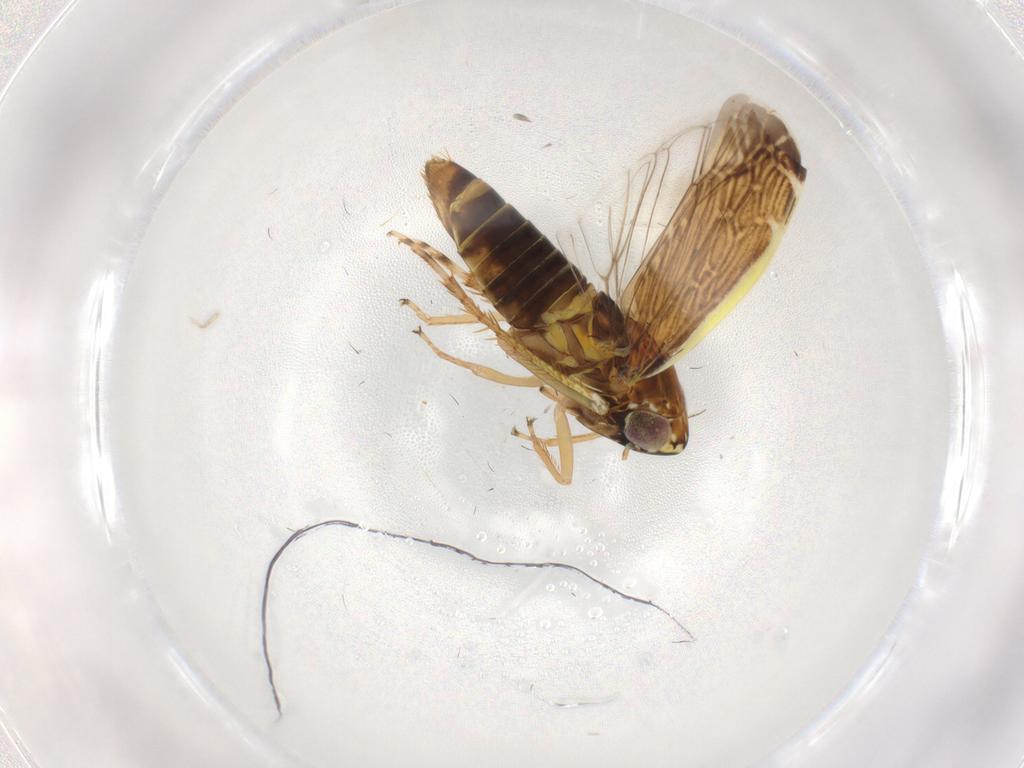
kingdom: Animalia
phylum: Arthropoda
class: Insecta
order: Hemiptera
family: Cicadellidae
